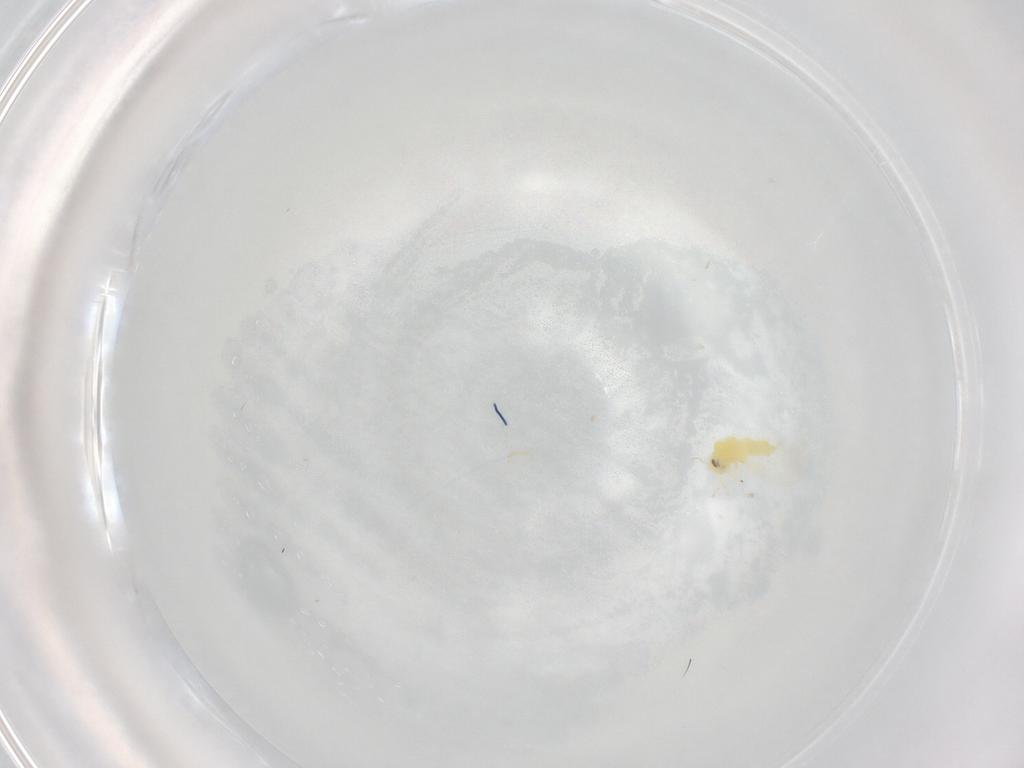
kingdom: Animalia
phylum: Arthropoda
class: Insecta
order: Hemiptera
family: Aleyrodidae
